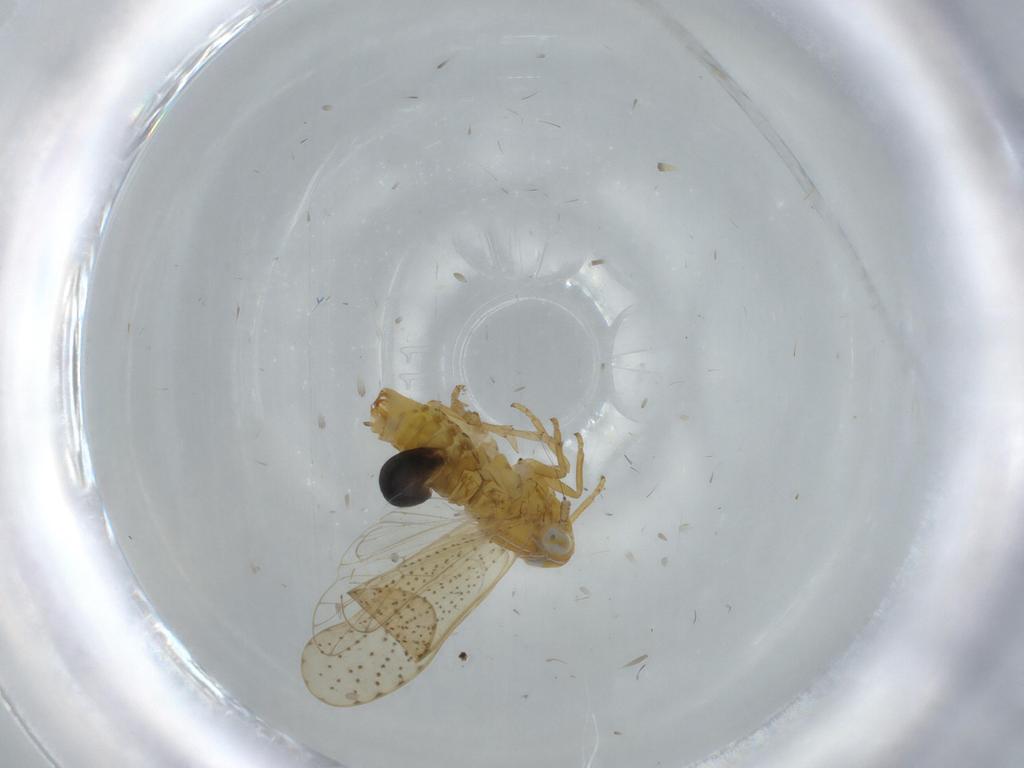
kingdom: Animalia
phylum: Arthropoda
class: Insecta
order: Hemiptera
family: Delphacidae
